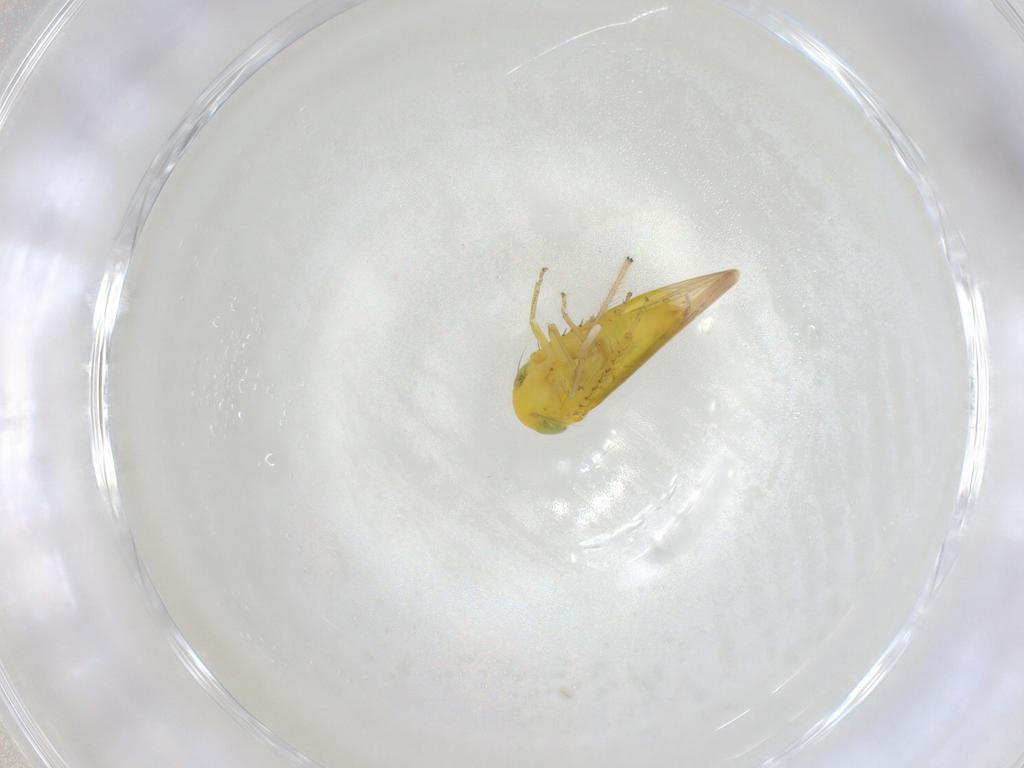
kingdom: Animalia
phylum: Arthropoda
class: Insecta
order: Hemiptera
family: Cicadellidae
